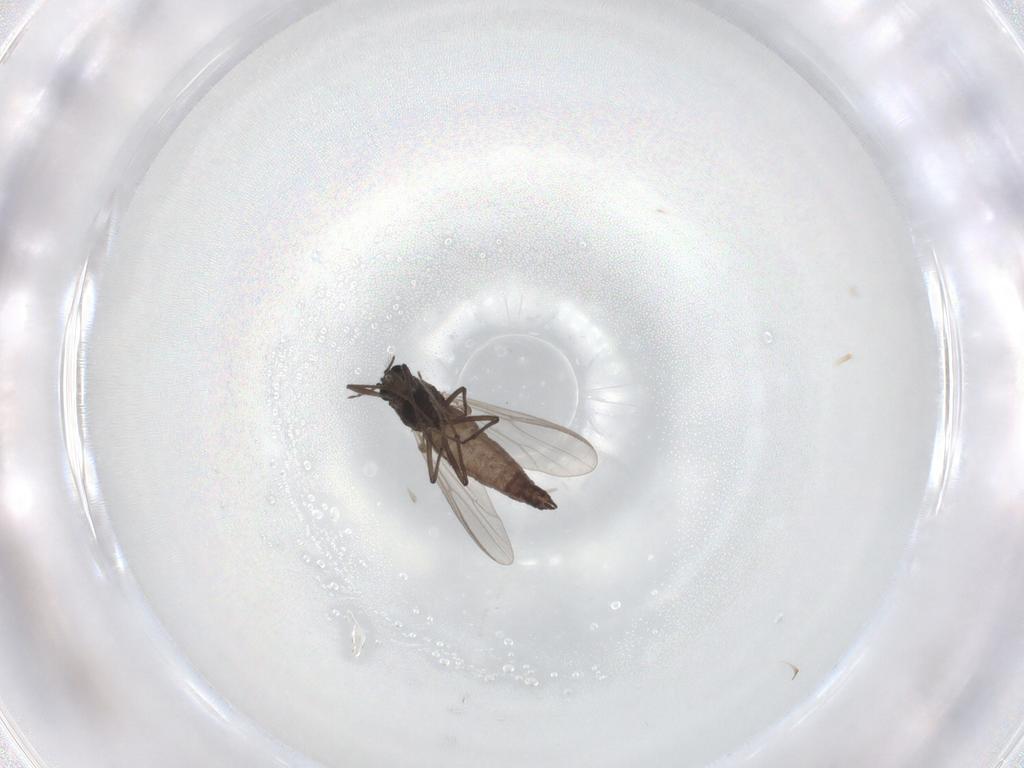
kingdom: Animalia
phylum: Arthropoda
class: Insecta
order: Diptera
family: Chironomidae
